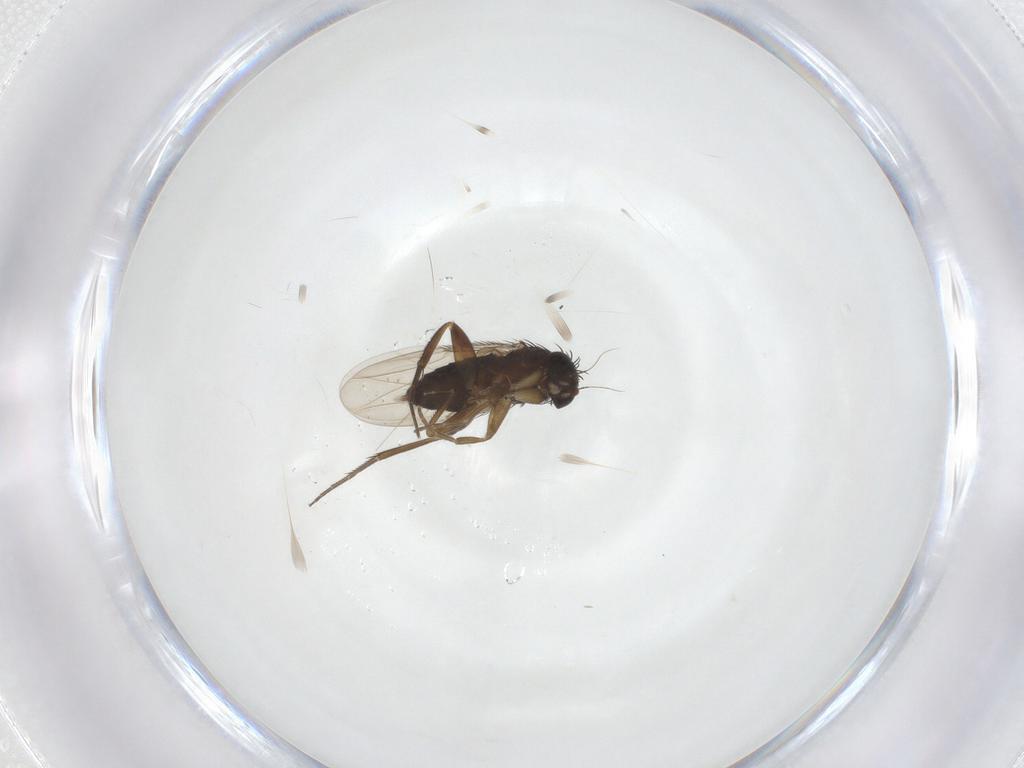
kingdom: Animalia
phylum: Arthropoda
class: Insecta
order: Diptera
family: Phoridae
